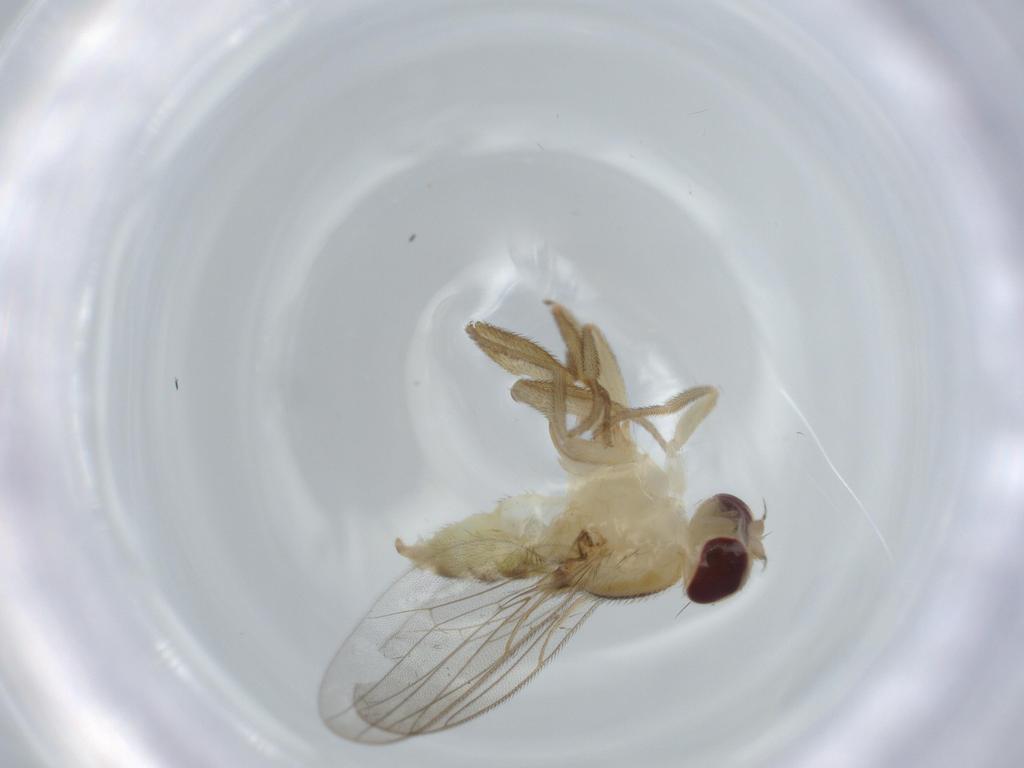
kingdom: Animalia
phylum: Arthropoda
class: Insecta
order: Diptera
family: Chloropidae
